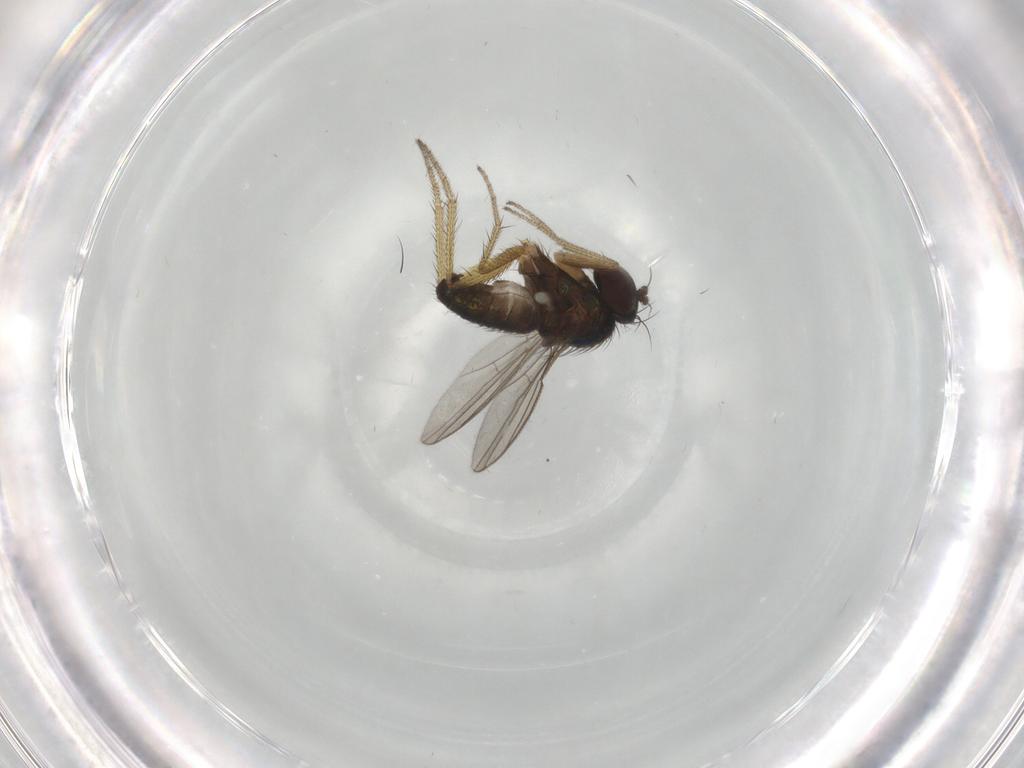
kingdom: Animalia
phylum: Arthropoda
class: Insecta
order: Diptera
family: Dolichopodidae
